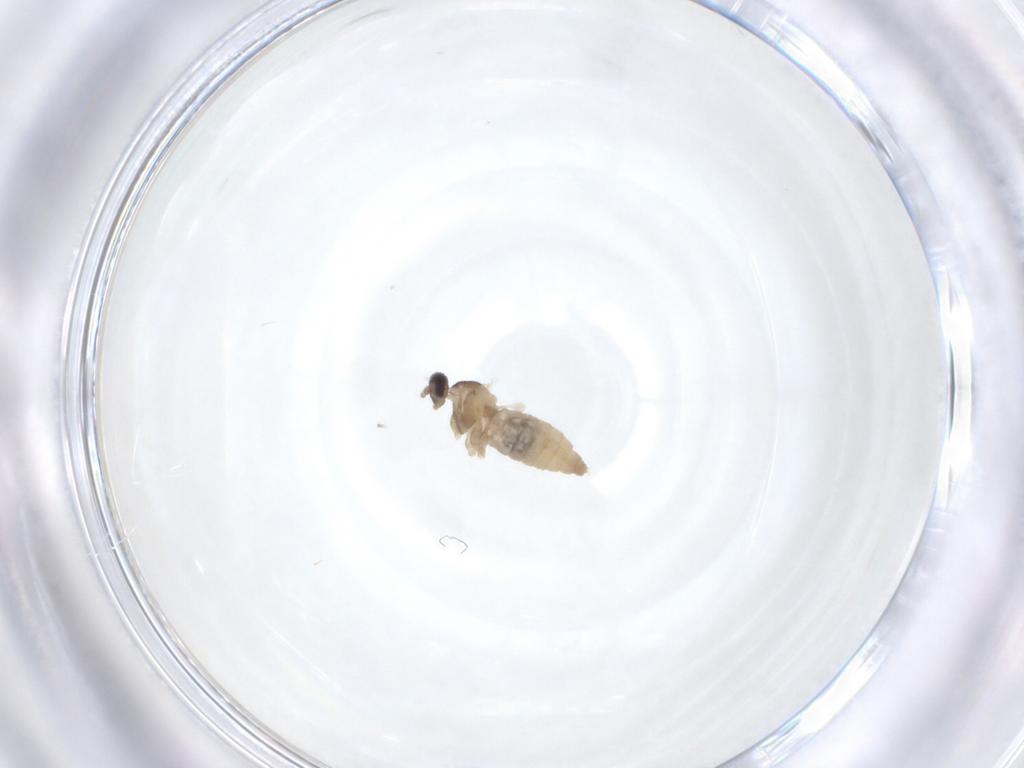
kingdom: Animalia
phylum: Arthropoda
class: Insecta
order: Diptera
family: Cecidomyiidae
